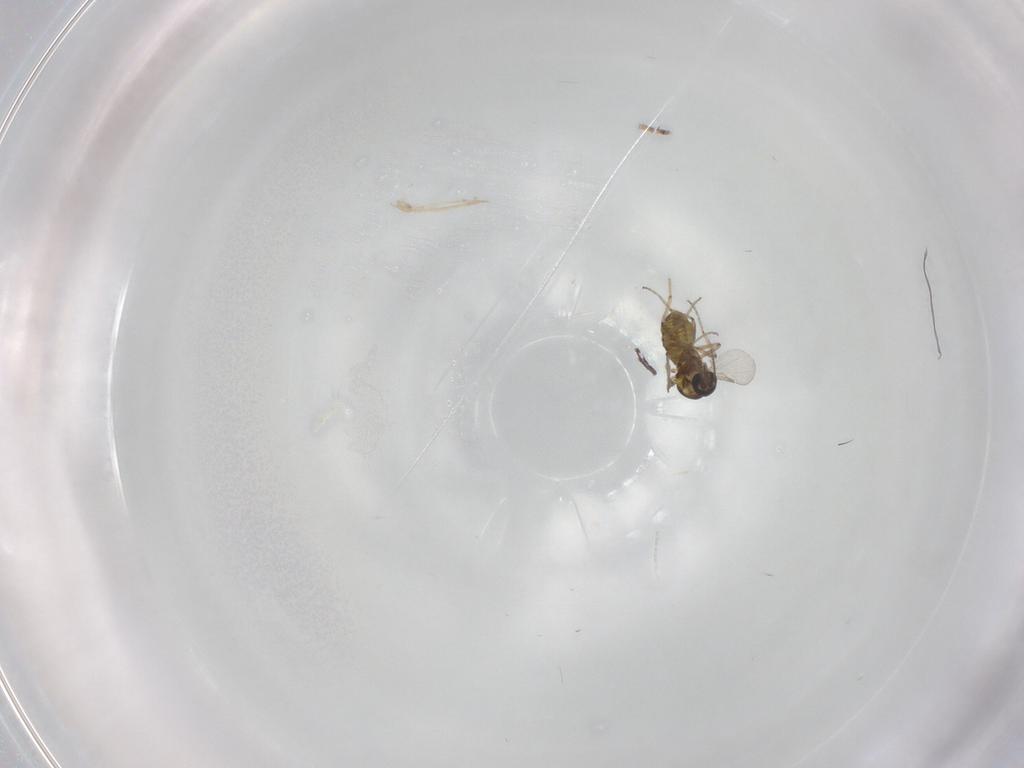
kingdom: Animalia
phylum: Arthropoda
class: Insecta
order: Diptera
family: Ceratopogonidae
